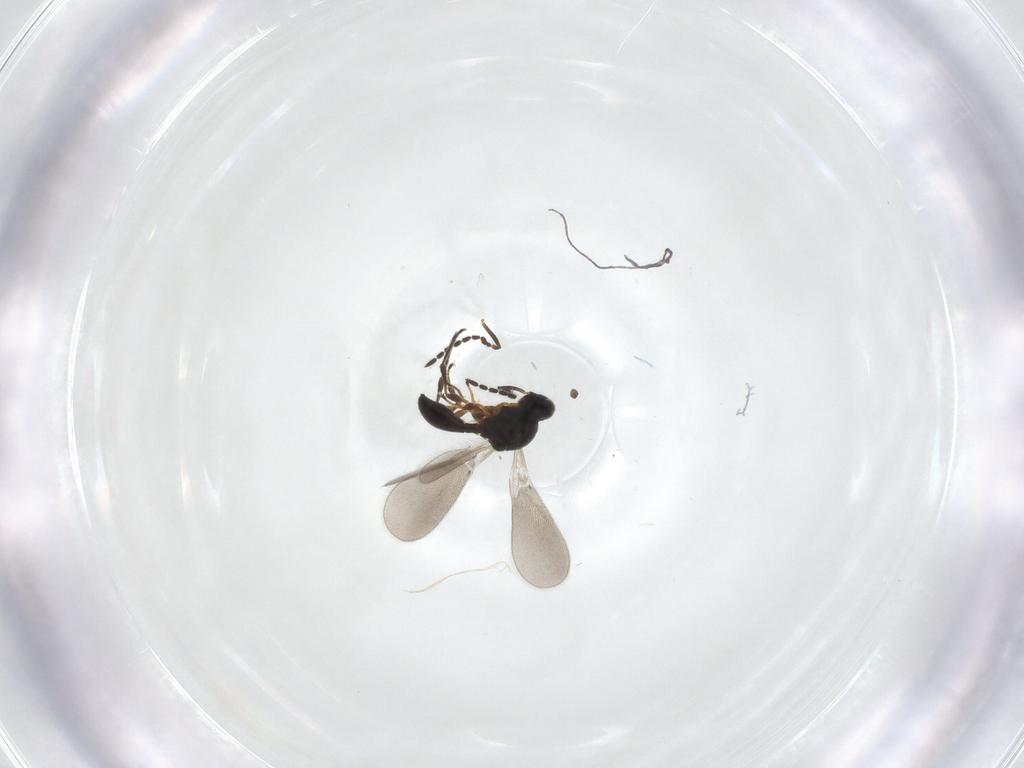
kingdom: Animalia
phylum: Arthropoda
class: Insecta
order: Hymenoptera
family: Platygastridae
